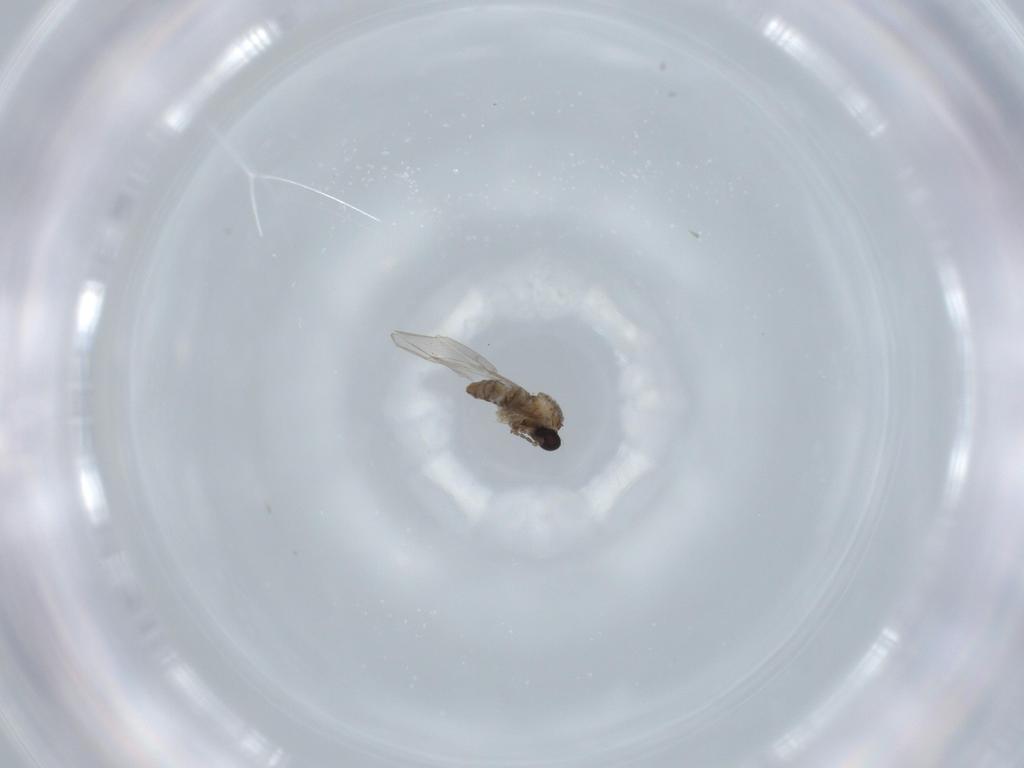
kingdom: Animalia
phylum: Arthropoda
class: Insecta
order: Diptera
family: Cecidomyiidae
